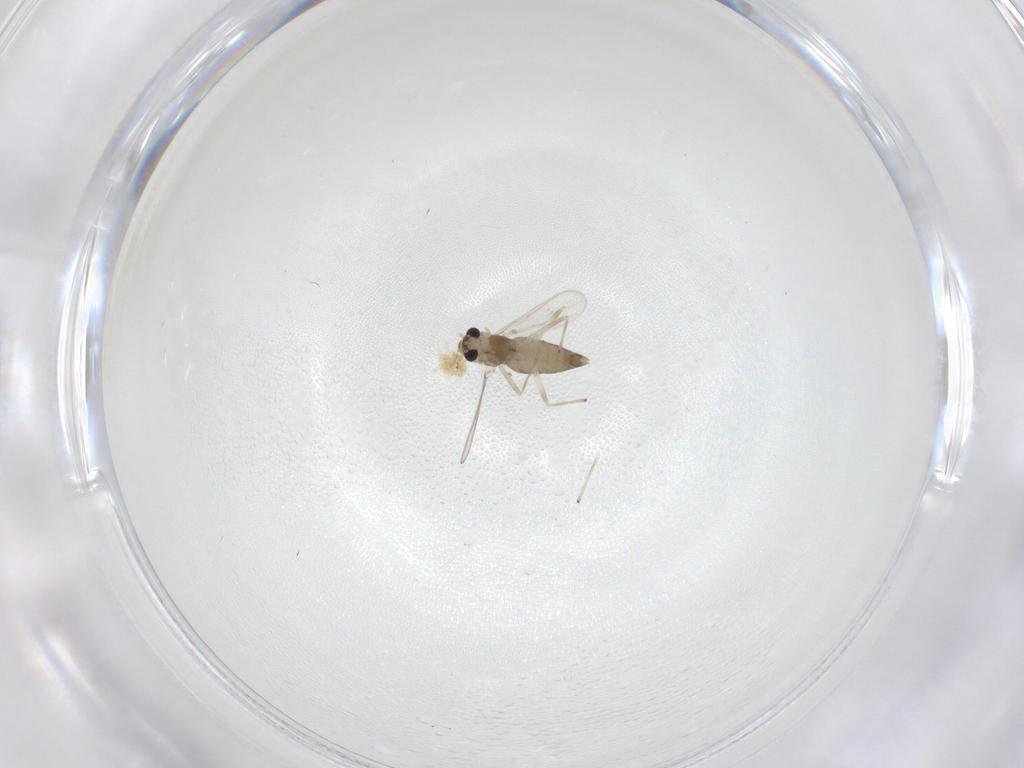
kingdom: Animalia
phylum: Arthropoda
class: Insecta
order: Diptera
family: Chironomidae
